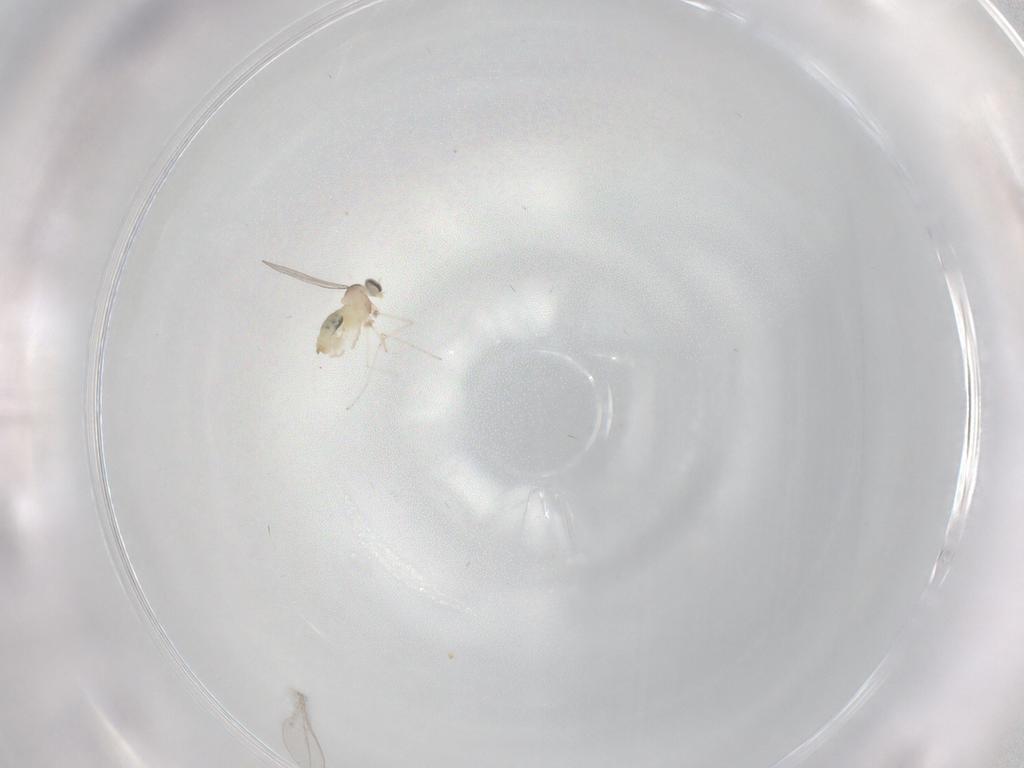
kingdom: Animalia
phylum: Arthropoda
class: Insecta
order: Diptera
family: Cecidomyiidae
